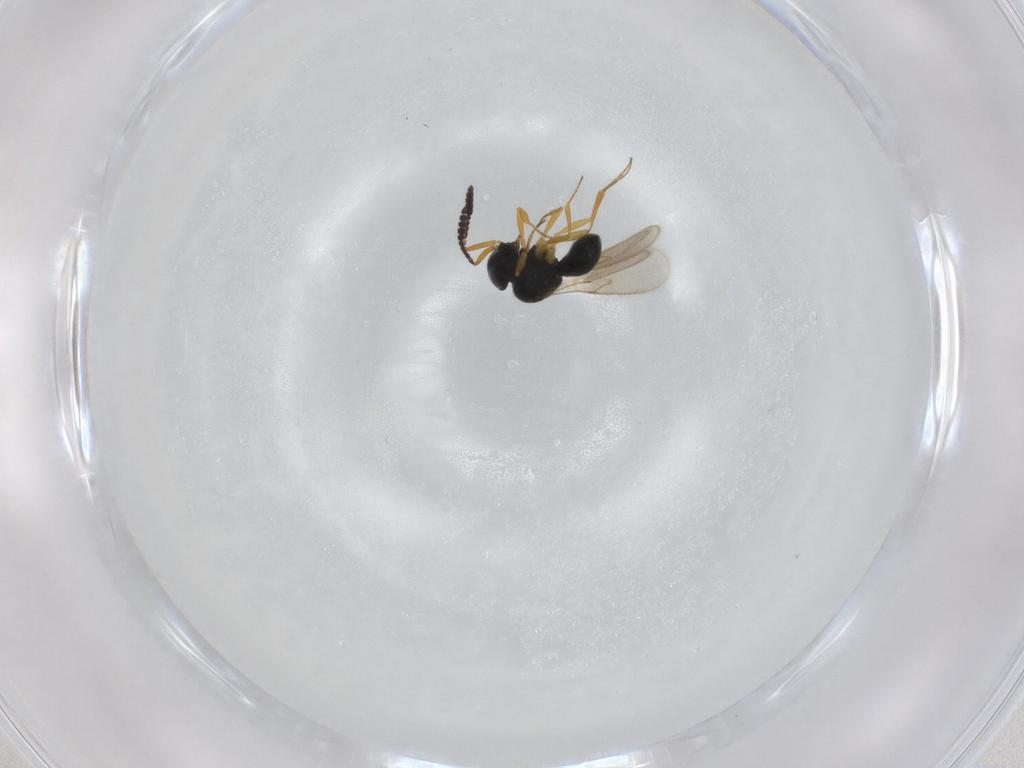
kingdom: Animalia
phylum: Arthropoda
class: Insecta
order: Hymenoptera
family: Scelionidae
